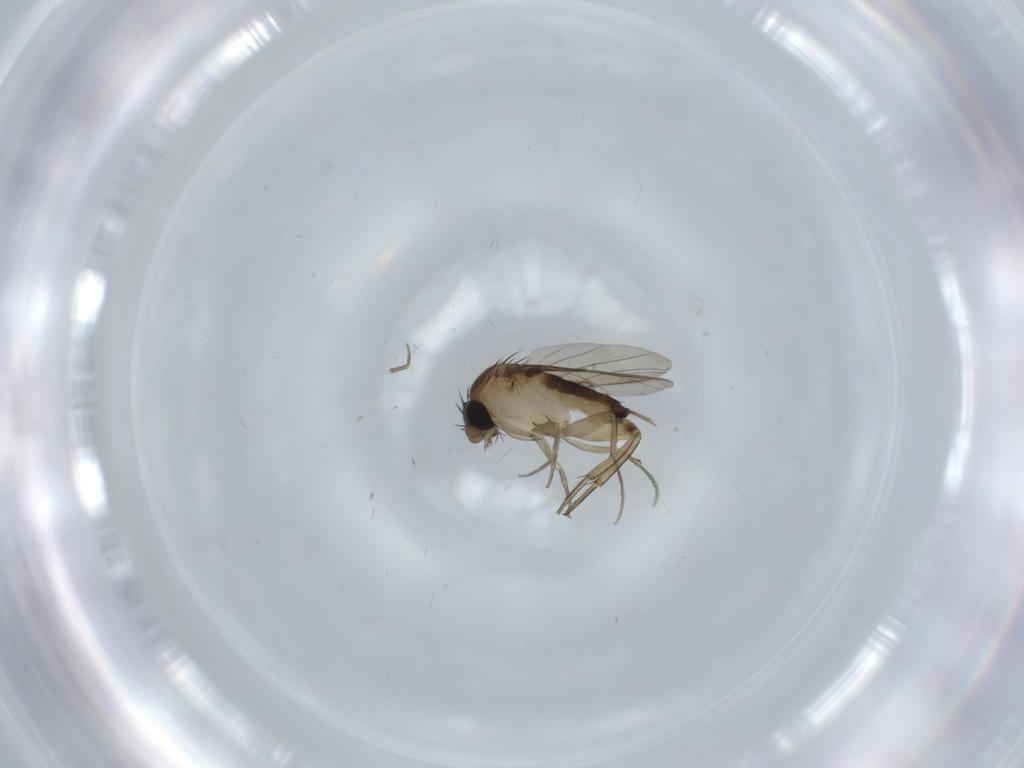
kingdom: Animalia
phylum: Arthropoda
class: Insecta
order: Diptera
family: Phoridae
